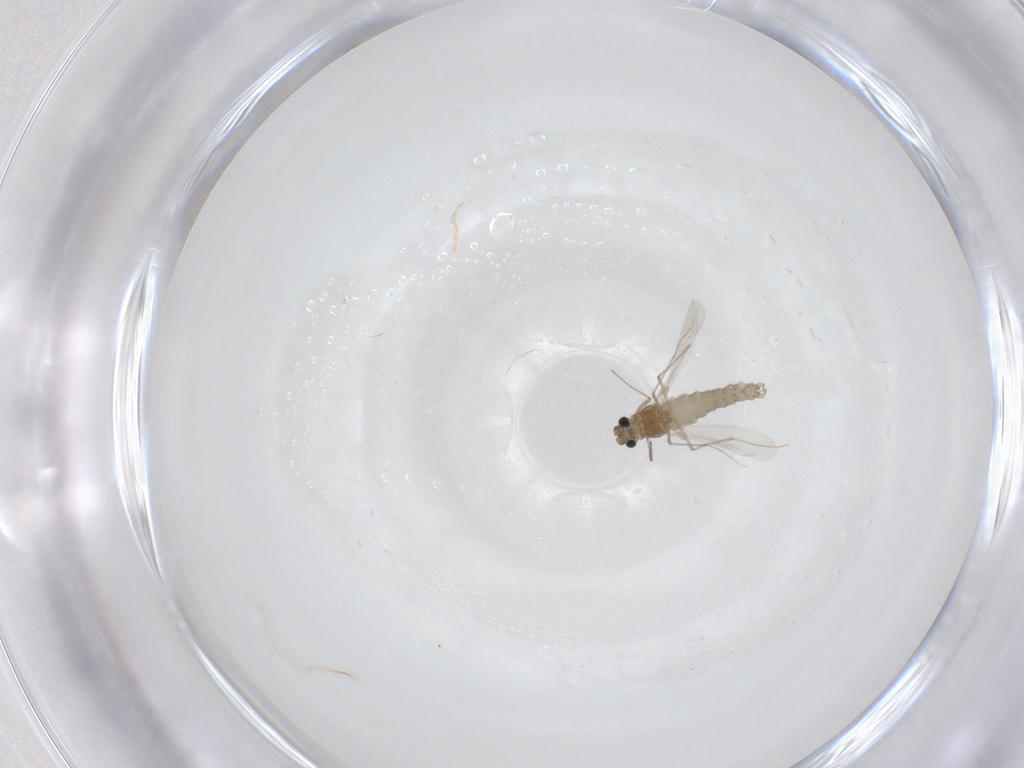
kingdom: Animalia
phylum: Arthropoda
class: Insecta
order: Diptera
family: Chironomidae
